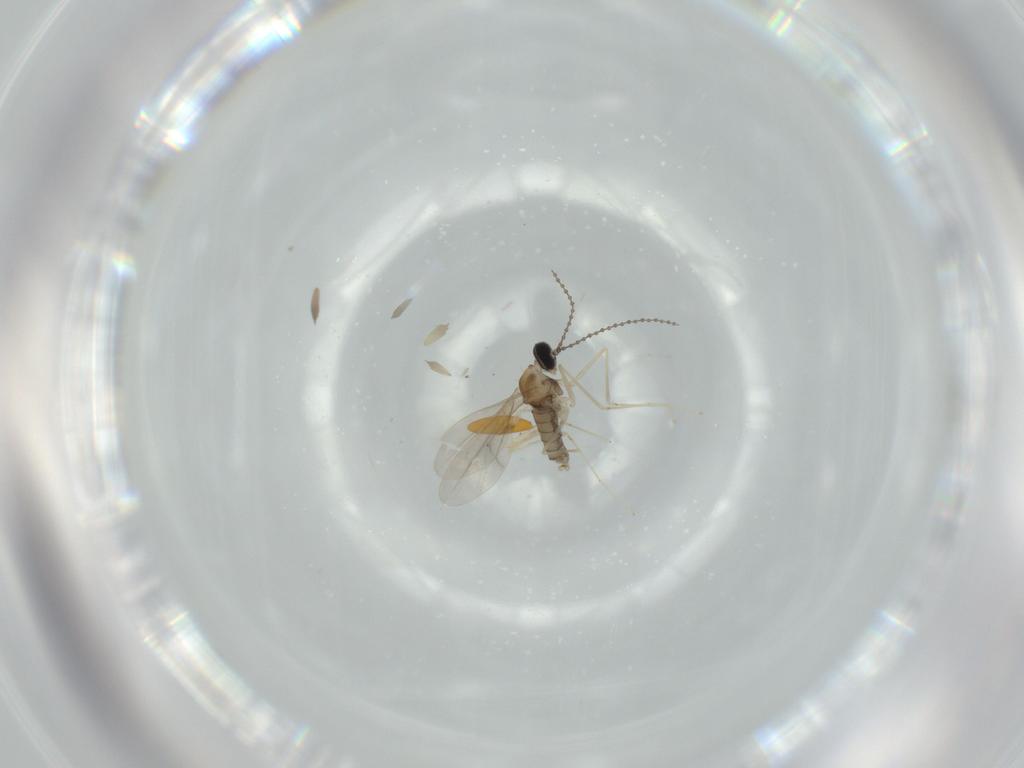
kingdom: Animalia
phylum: Arthropoda
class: Insecta
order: Diptera
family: Cecidomyiidae
